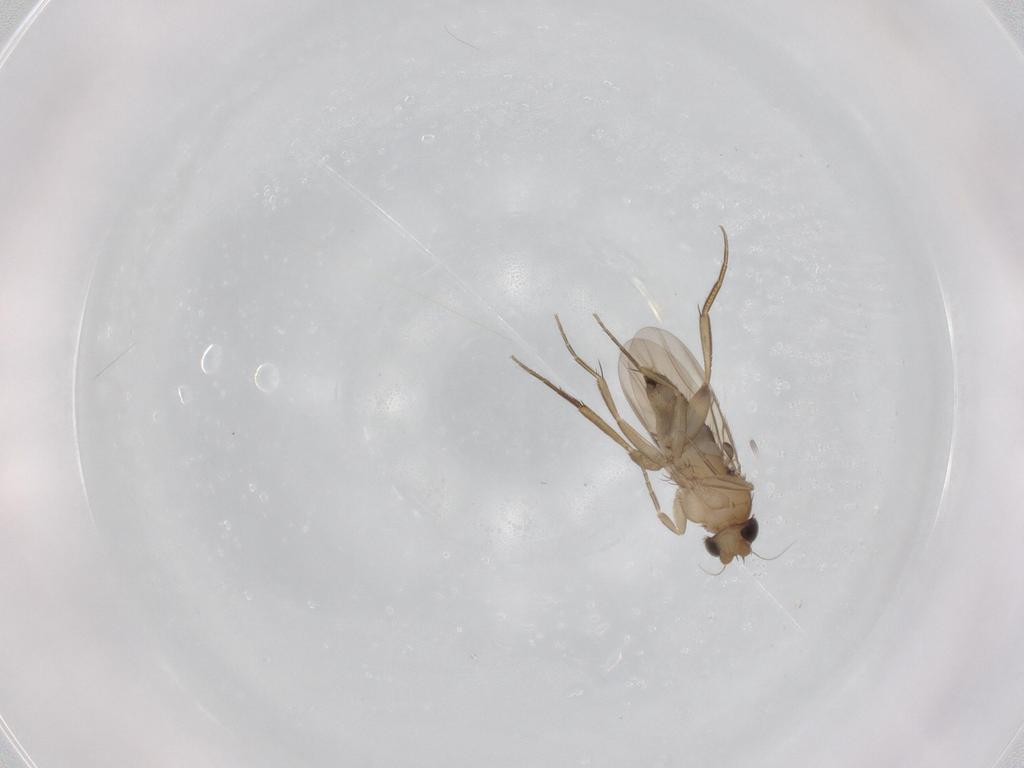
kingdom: Animalia
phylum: Arthropoda
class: Insecta
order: Diptera
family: Phoridae
